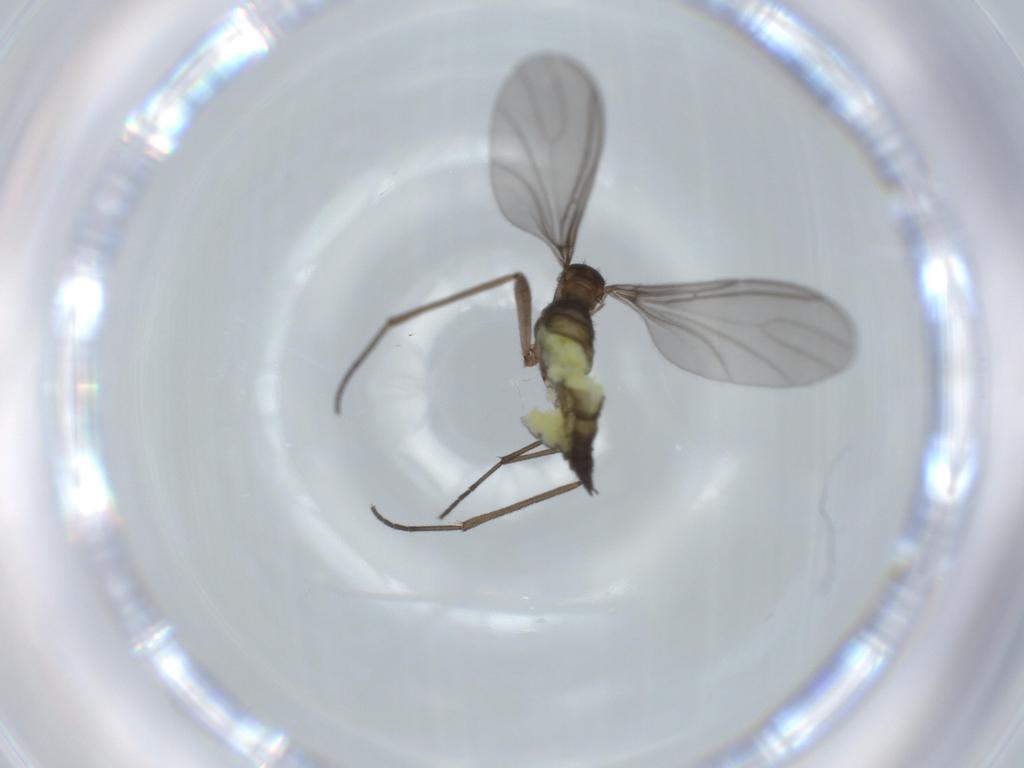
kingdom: Animalia
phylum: Arthropoda
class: Insecta
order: Diptera
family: Sciaridae
